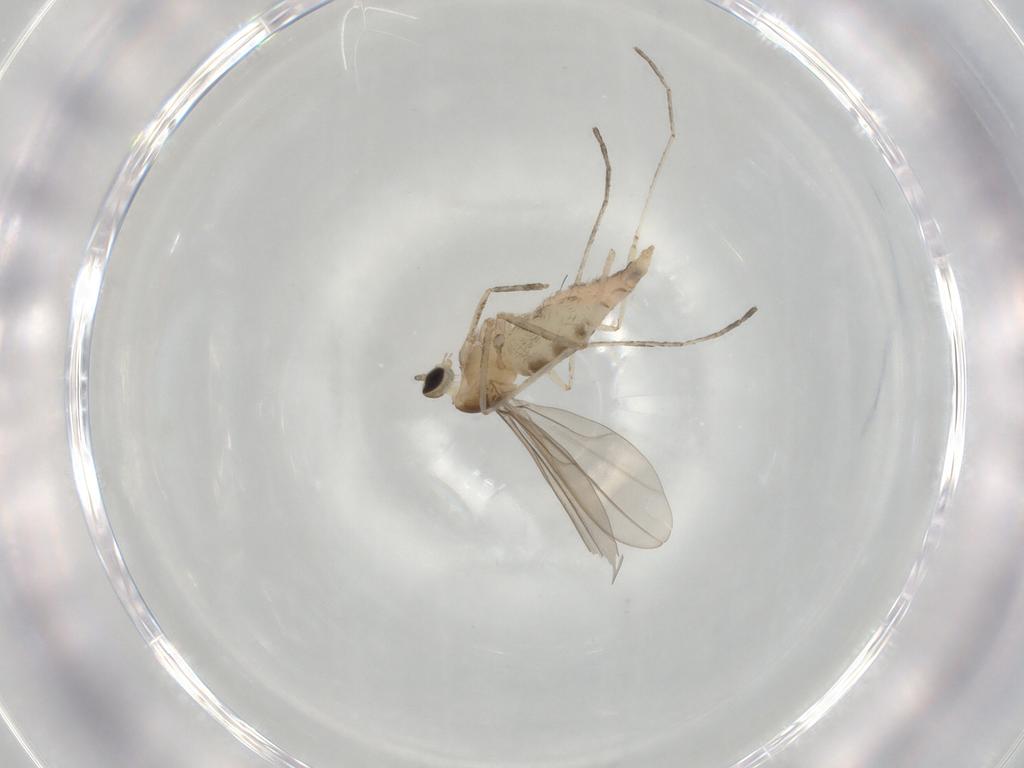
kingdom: Animalia
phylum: Arthropoda
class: Insecta
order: Diptera
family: Cecidomyiidae
